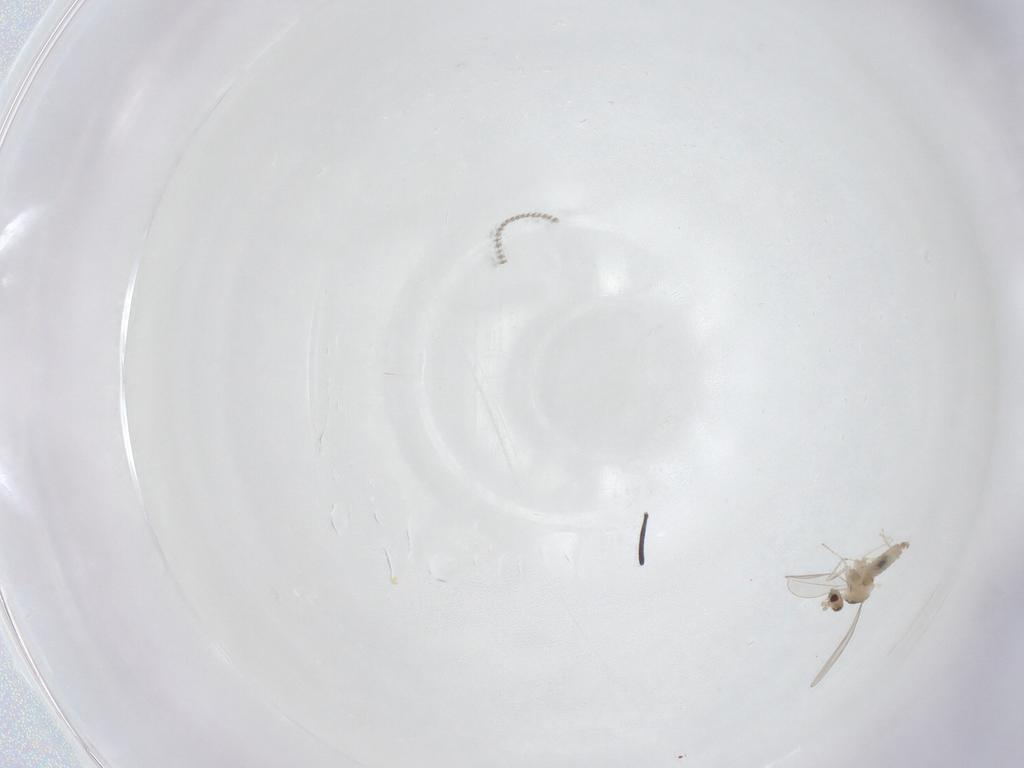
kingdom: Animalia
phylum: Arthropoda
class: Insecta
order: Diptera
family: Cecidomyiidae
